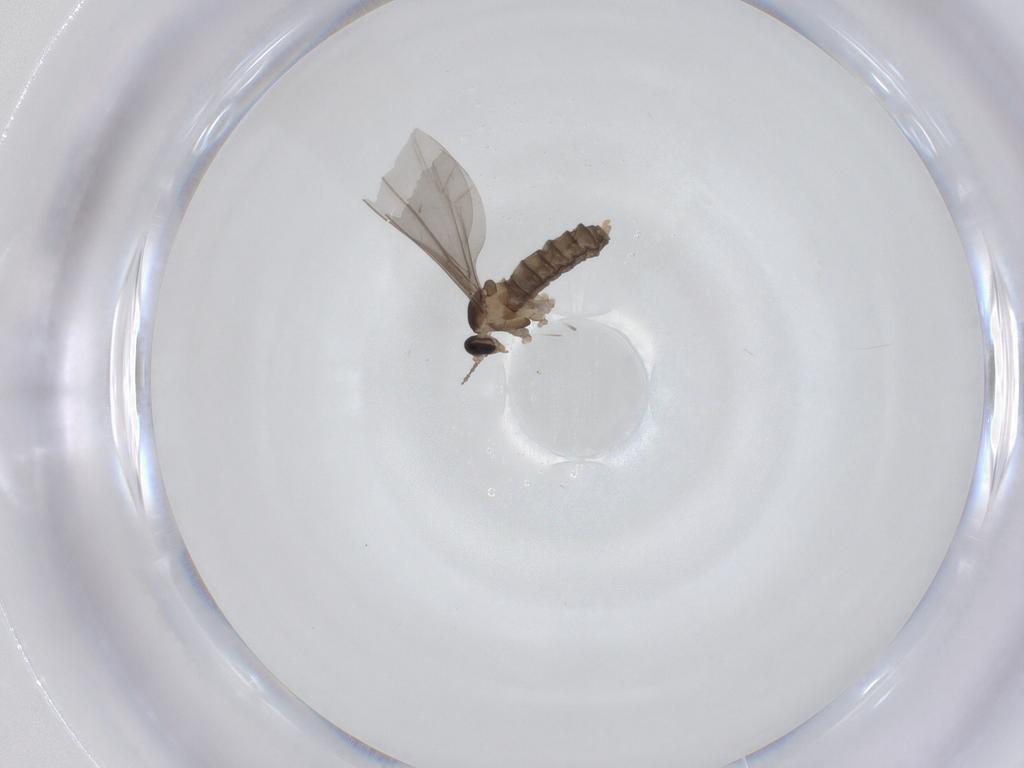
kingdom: Animalia
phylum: Arthropoda
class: Insecta
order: Diptera
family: Cecidomyiidae
